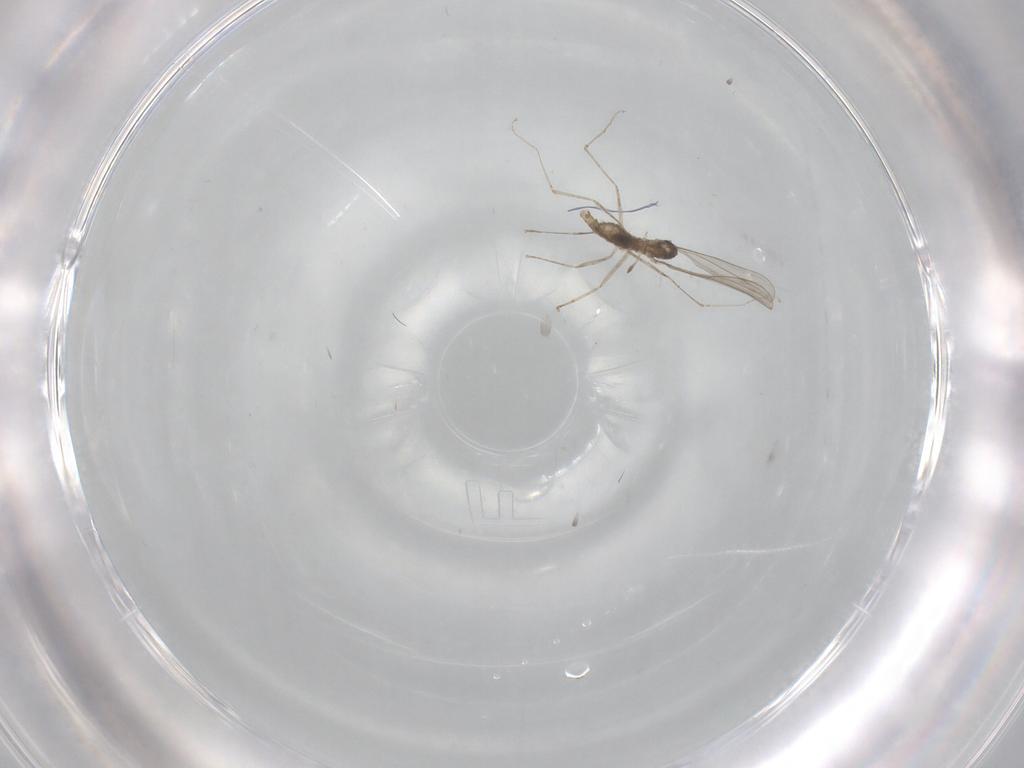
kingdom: Animalia
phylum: Arthropoda
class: Insecta
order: Diptera
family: Cecidomyiidae
